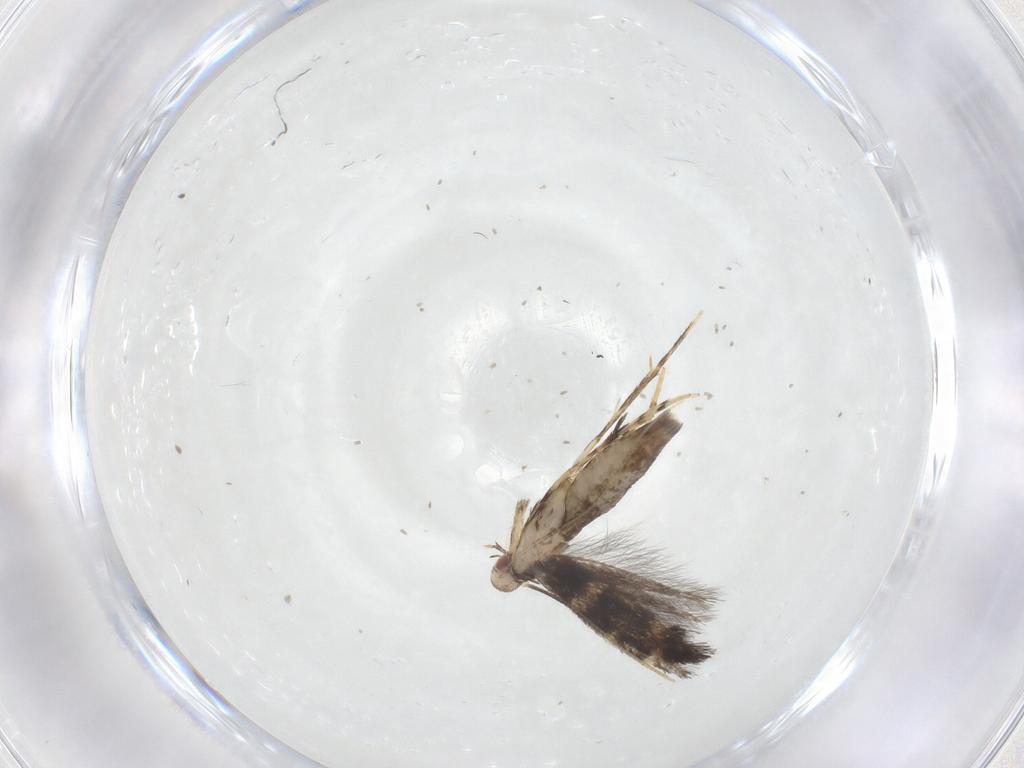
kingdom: Animalia
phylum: Arthropoda
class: Insecta
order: Lepidoptera
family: Gracillariidae
